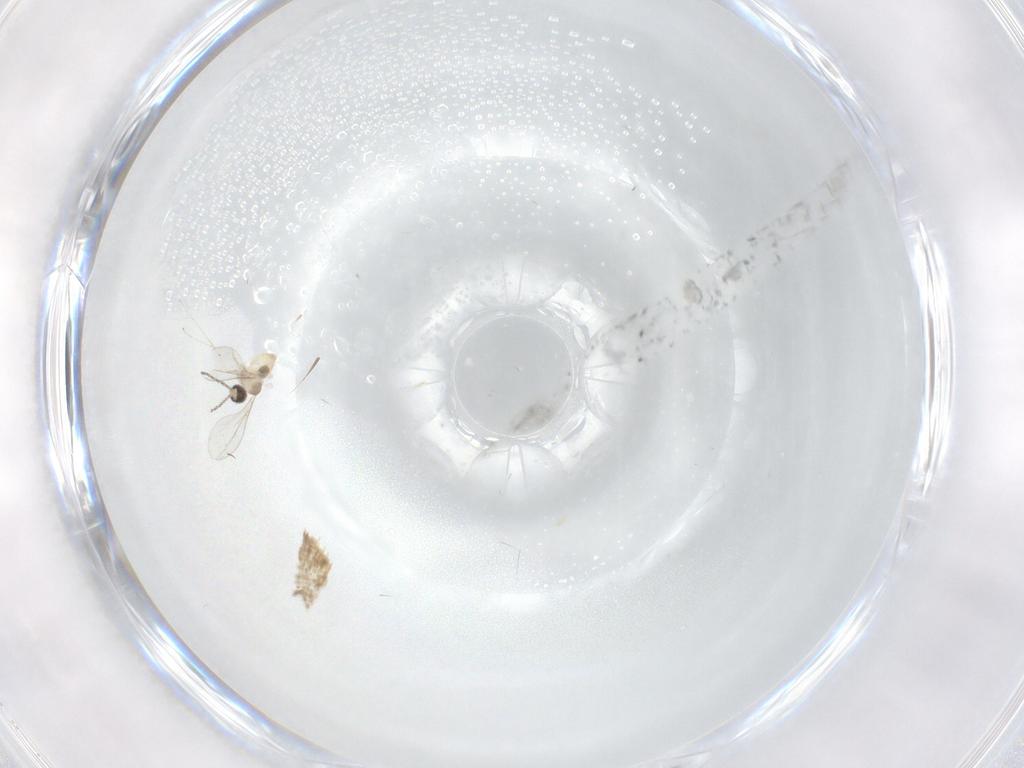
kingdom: Animalia
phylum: Arthropoda
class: Insecta
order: Diptera
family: Cecidomyiidae
